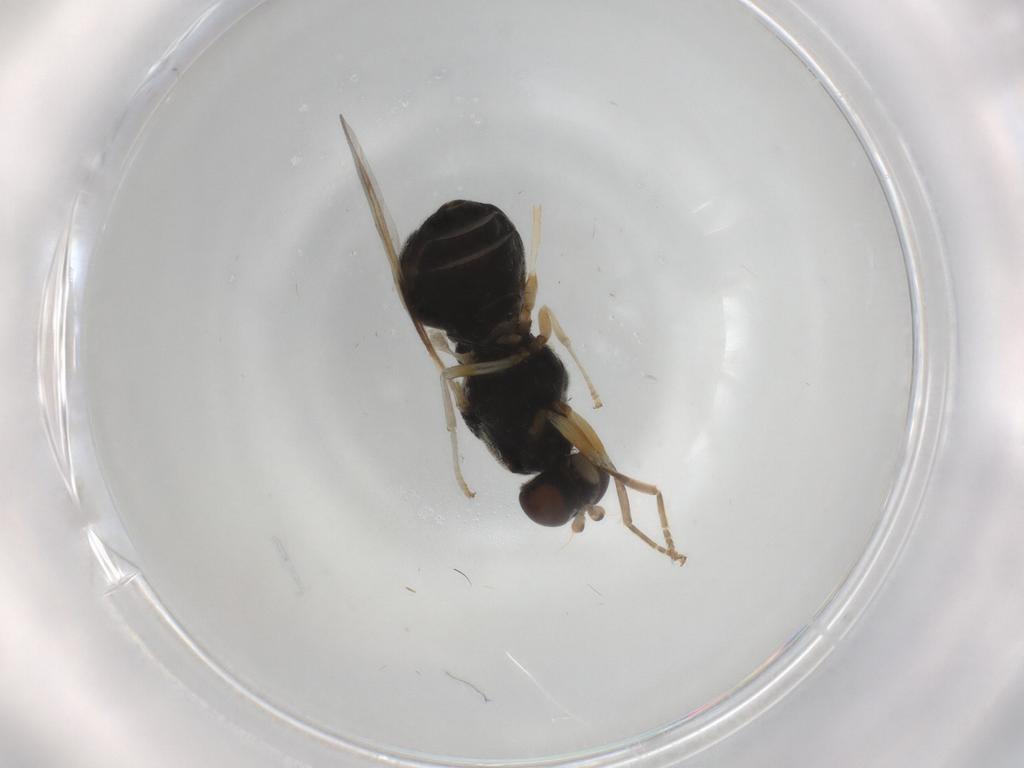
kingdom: Animalia
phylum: Arthropoda
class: Insecta
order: Diptera
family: Stratiomyidae
